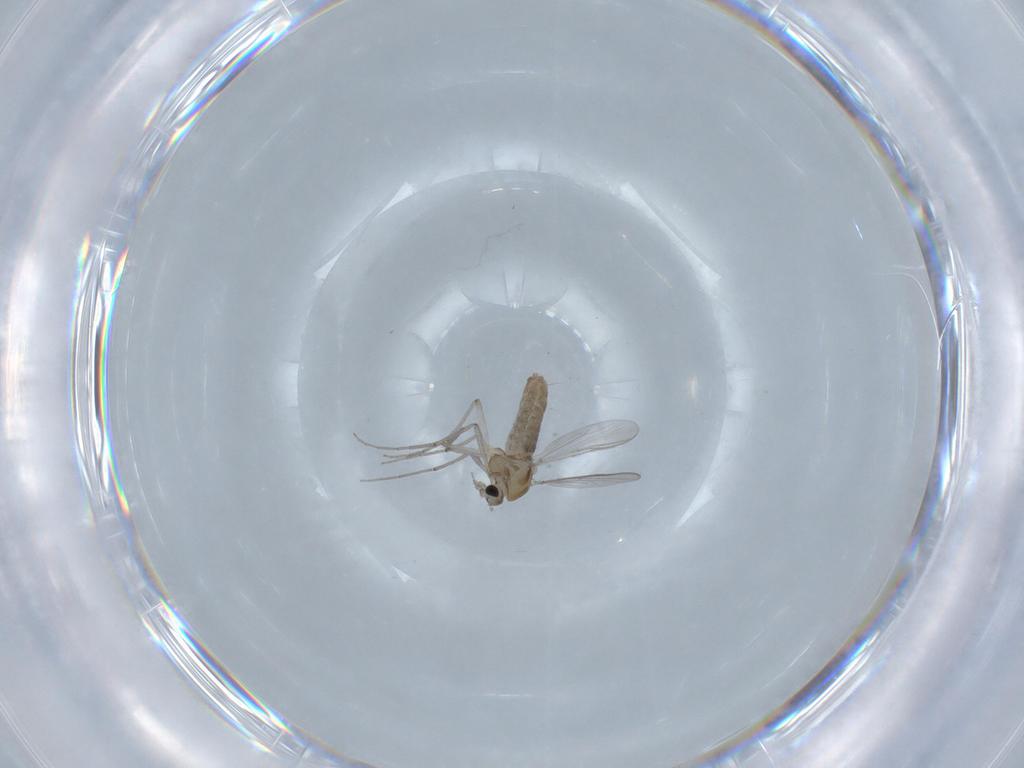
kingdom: Animalia
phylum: Arthropoda
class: Insecta
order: Diptera
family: Chironomidae
